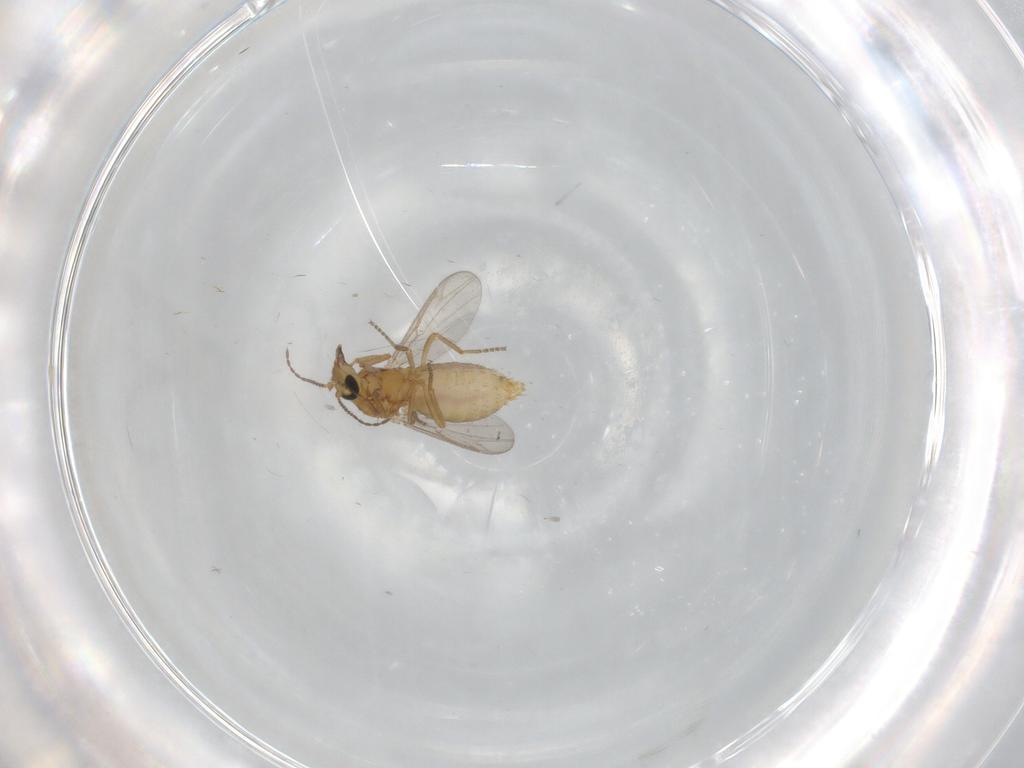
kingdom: Animalia
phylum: Arthropoda
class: Insecta
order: Diptera
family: Ceratopogonidae
